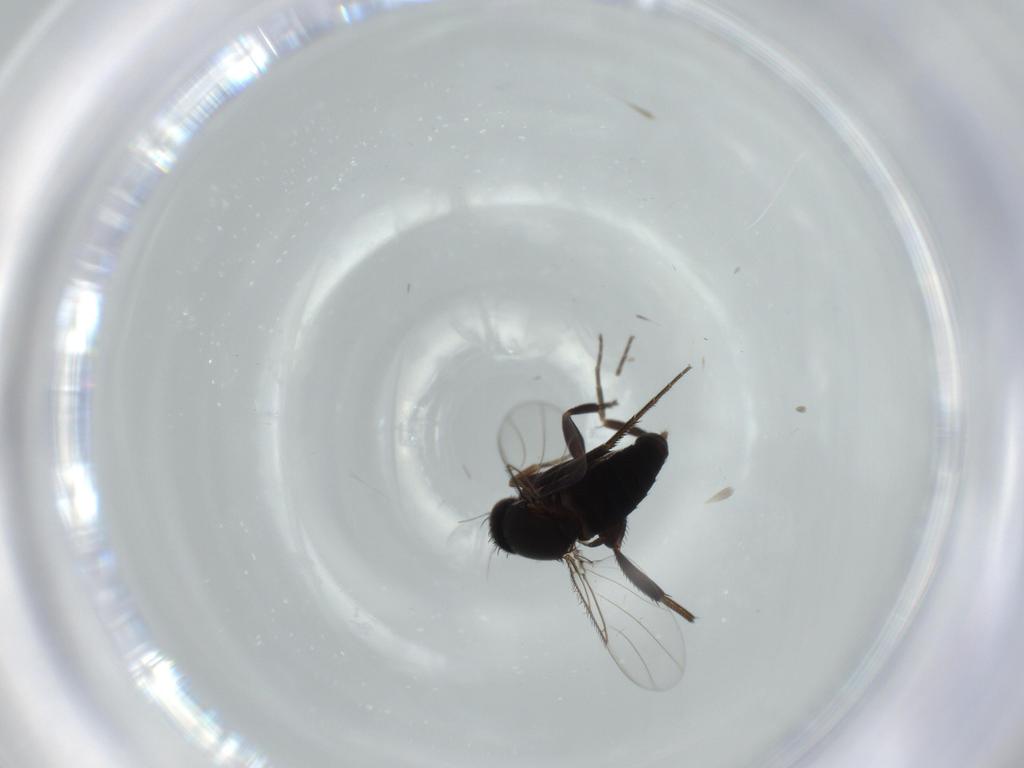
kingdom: Animalia
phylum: Arthropoda
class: Insecta
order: Diptera
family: Phoridae
